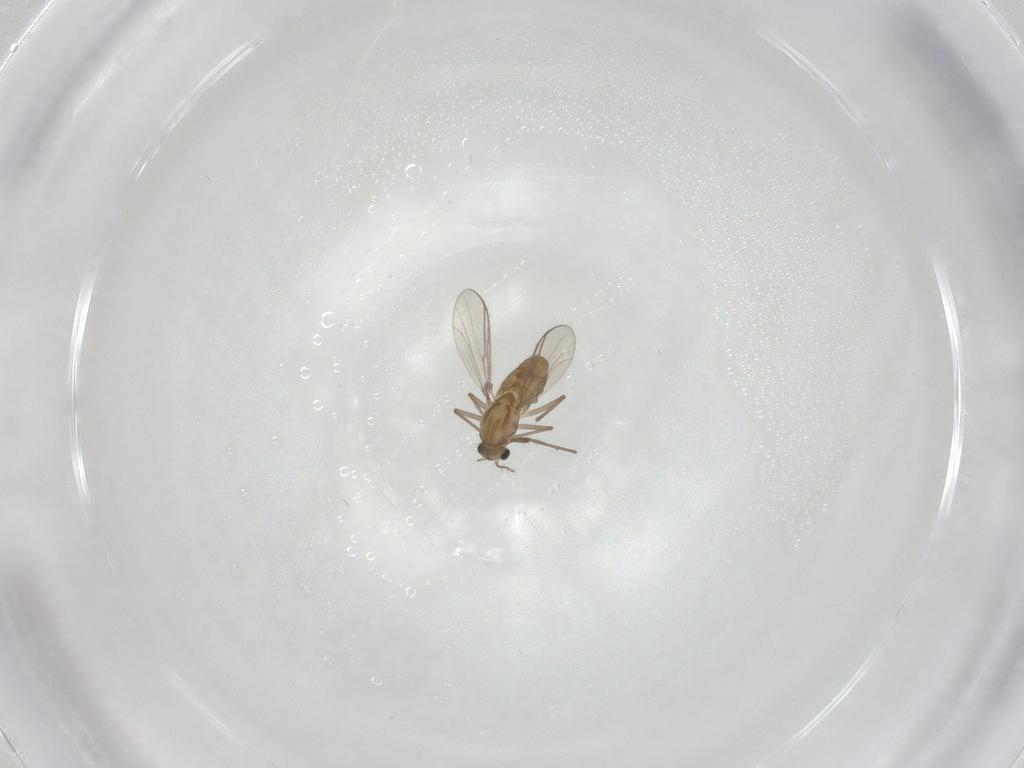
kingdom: Animalia
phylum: Arthropoda
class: Insecta
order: Diptera
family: Chironomidae
